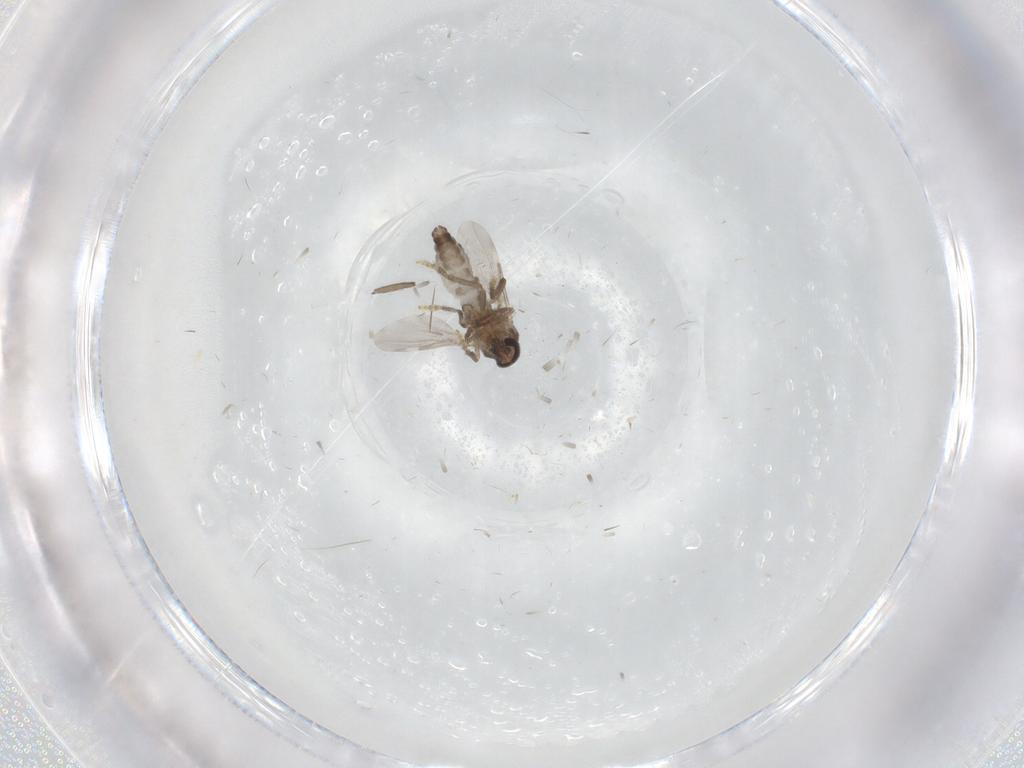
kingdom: Animalia
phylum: Arthropoda
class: Insecta
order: Diptera
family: Ceratopogonidae
